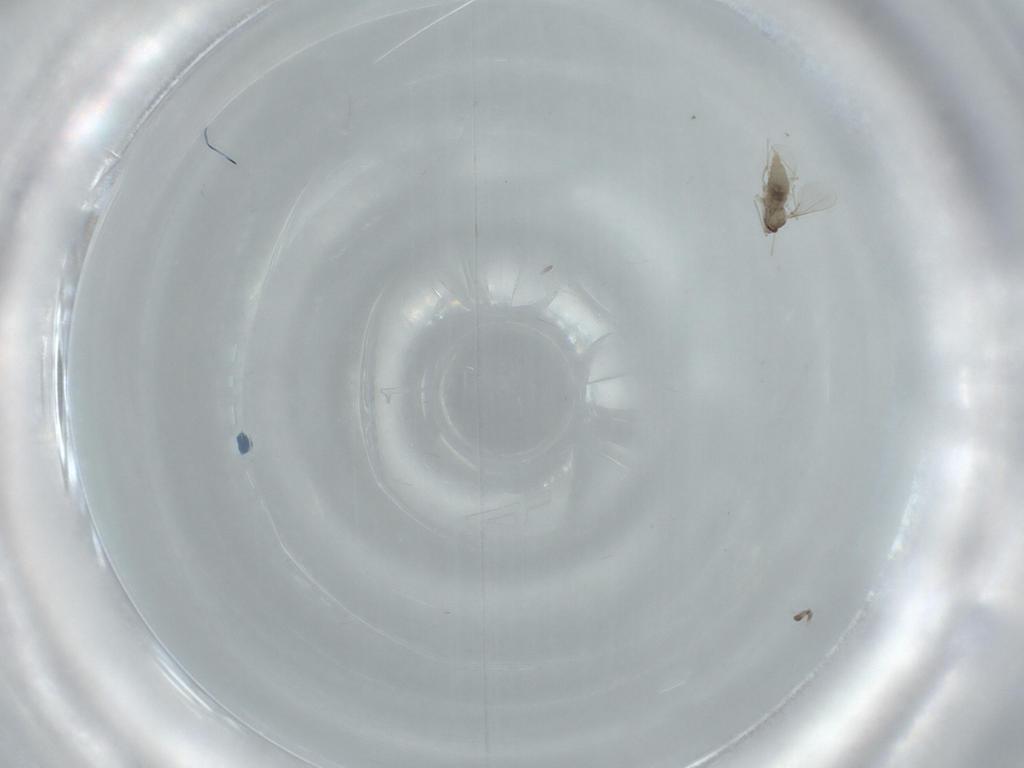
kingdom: Animalia
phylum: Arthropoda
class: Insecta
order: Diptera
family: Cecidomyiidae
